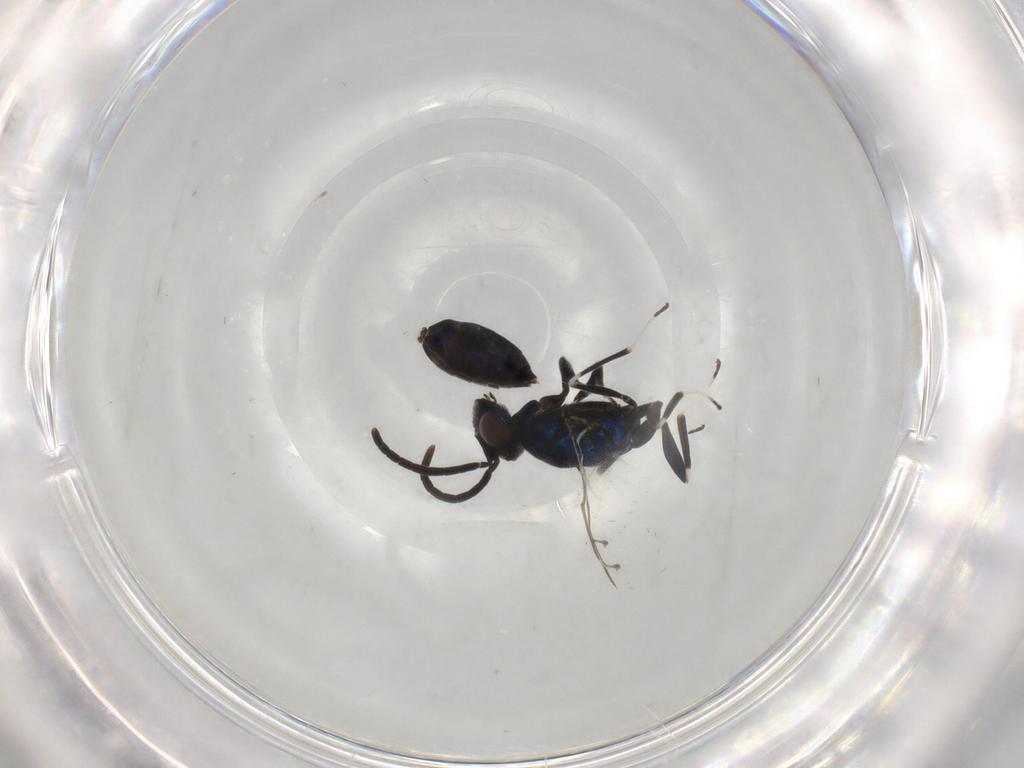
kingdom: Animalia
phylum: Arthropoda
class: Insecta
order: Hymenoptera
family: Eupelmidae
